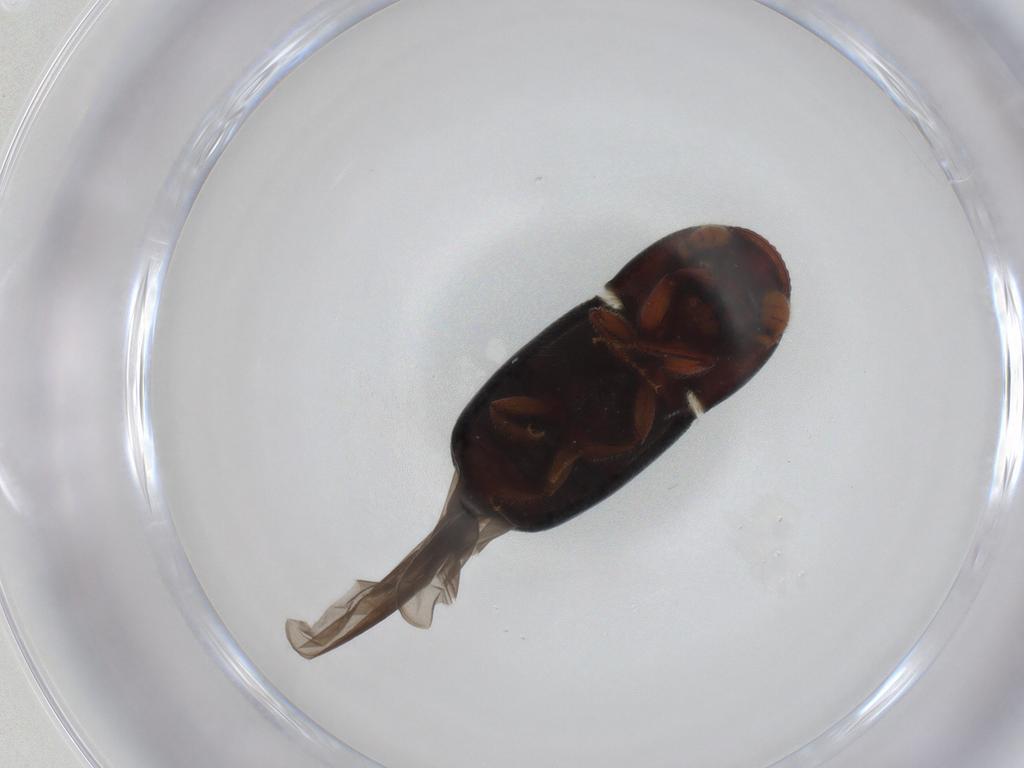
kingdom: Animalia
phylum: Arthropoda
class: Insecta
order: Coleoptera
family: Curculionidae
